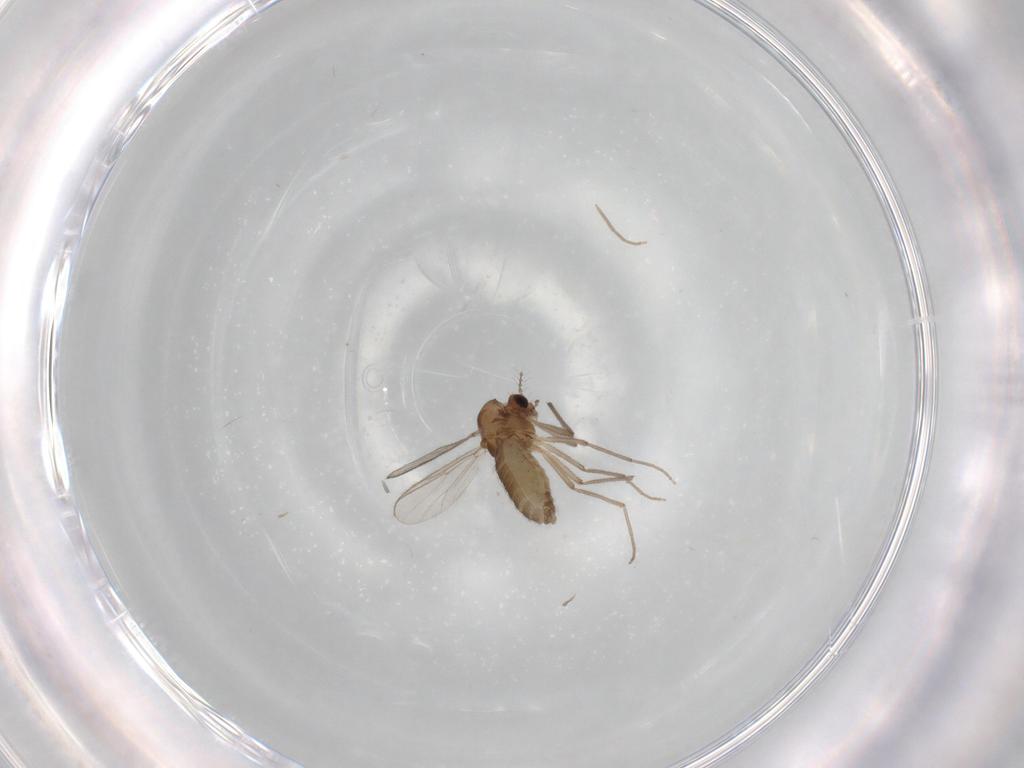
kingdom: Animalia
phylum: Arthropoda
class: Insecta
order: Diptera
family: Chironomidae
